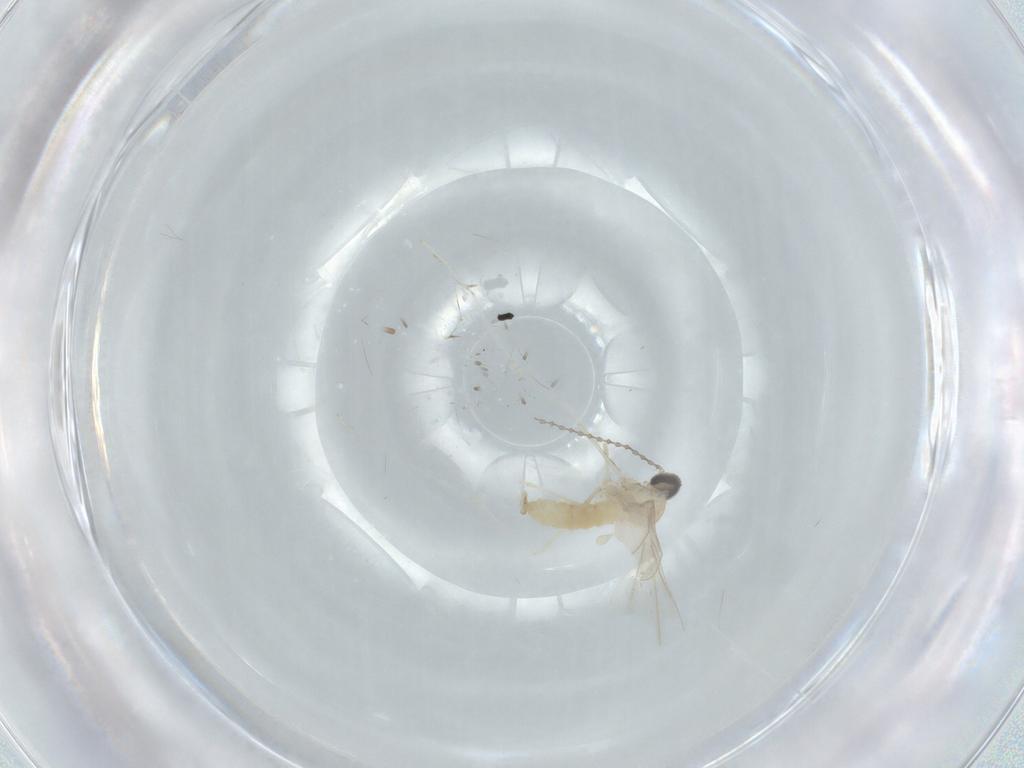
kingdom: Animalia
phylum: Arthropoda
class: Insecta
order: Diptera
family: Cecidomyiidae
